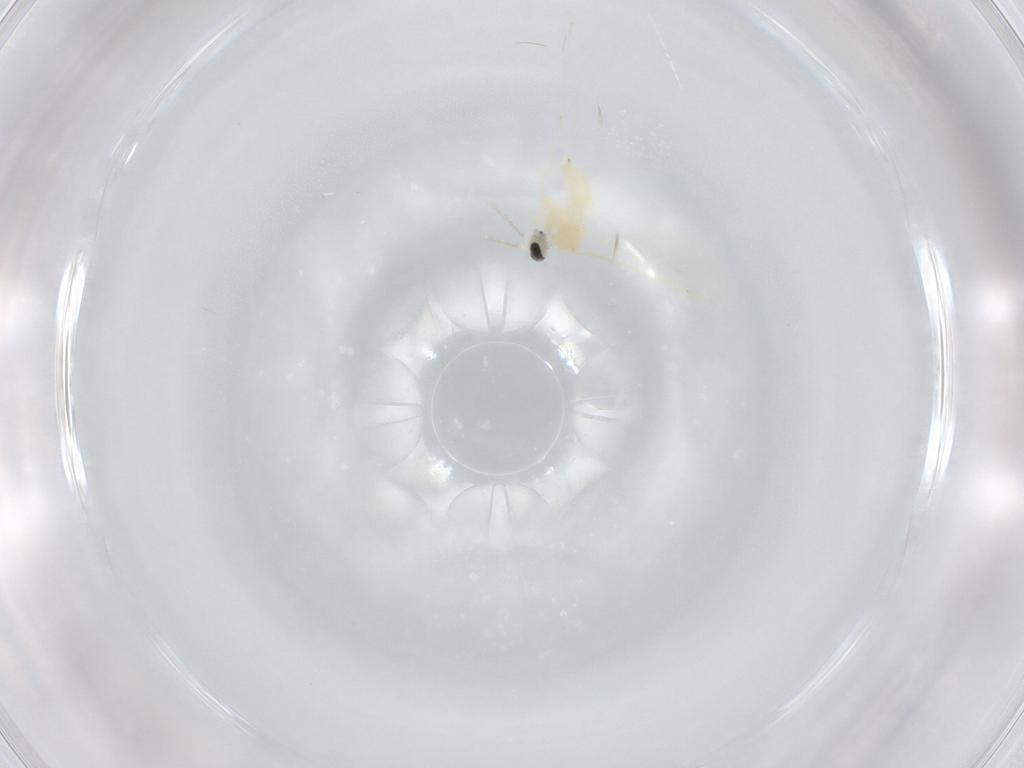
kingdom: Animalia
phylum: Arthropoda
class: Insecta
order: Diptera
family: Cecidomyiidae
